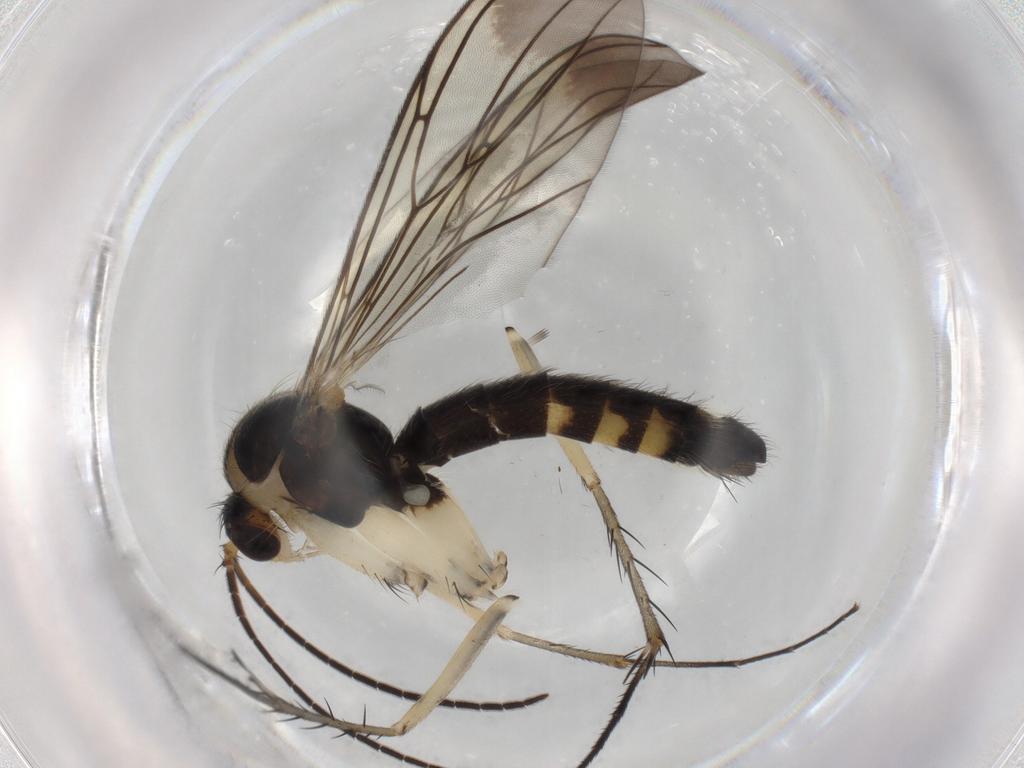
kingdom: Animalia
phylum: Arthropoda
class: Insecta
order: Diptera
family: Mycetophilidae
